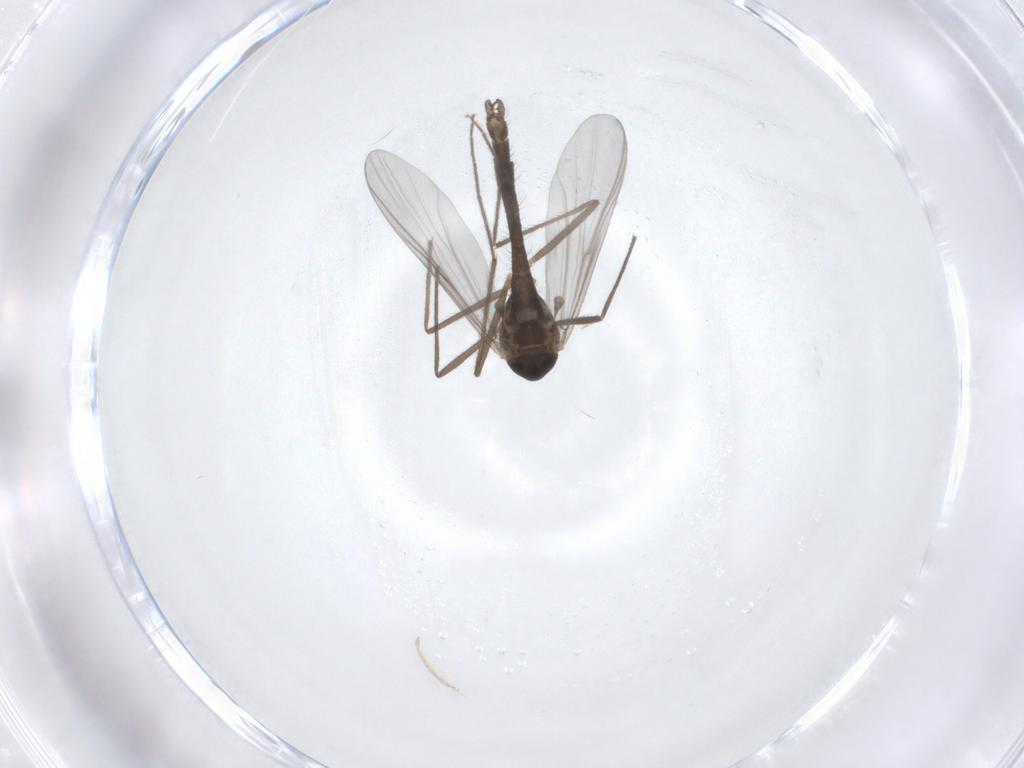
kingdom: Animalia
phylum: Arthropoda
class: Insecta
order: Diptera
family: Chironomidae
